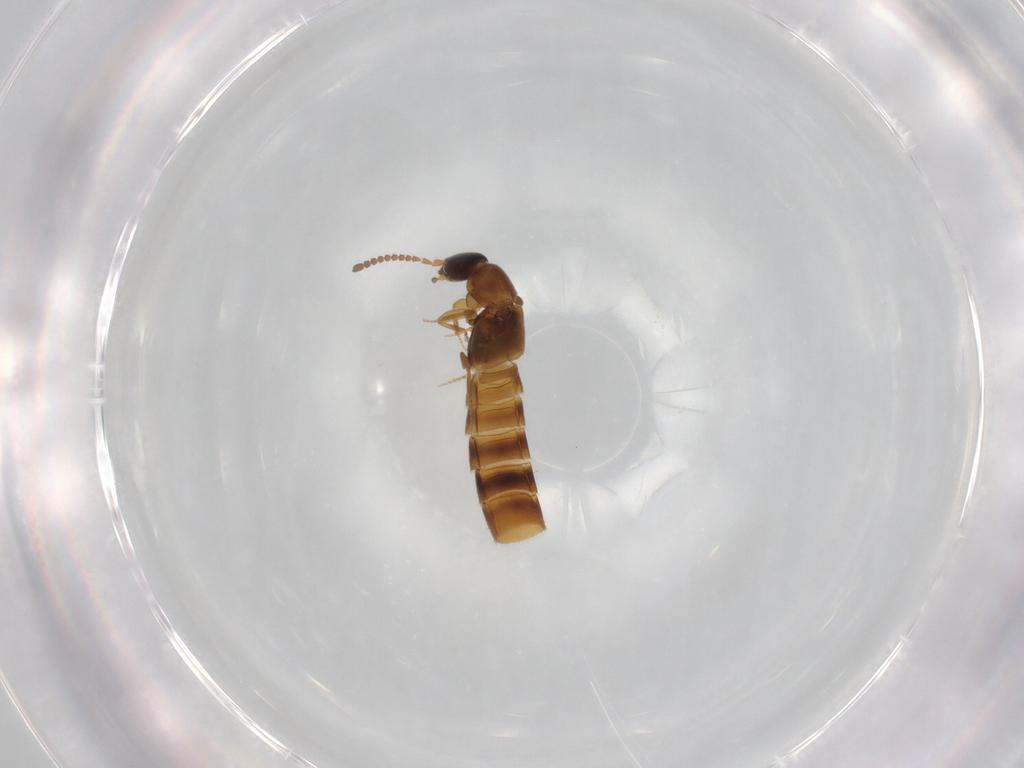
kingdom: Animalia
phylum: Arthropoda
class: Insecta
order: Coleoptera
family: Staphylinidae
